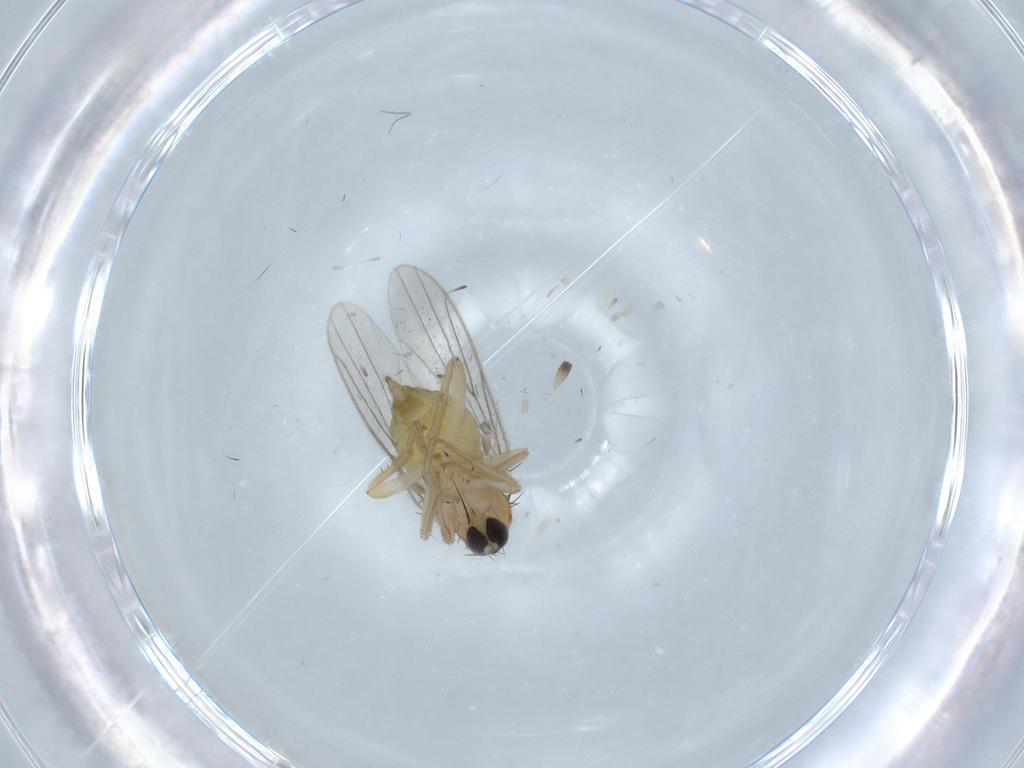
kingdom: Animalia
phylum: Arthropoda
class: Insecta
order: Diptera
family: Hybotidae
